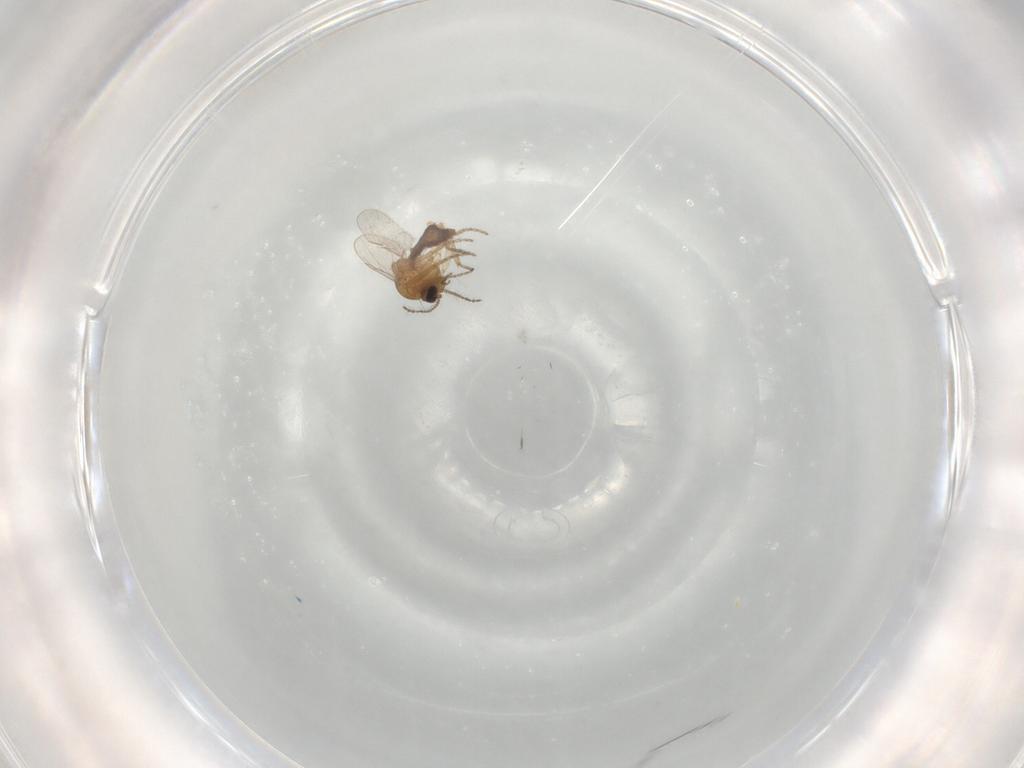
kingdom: Animalia
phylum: Arthropoda
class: Insecta
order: Diptera
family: Ceratopogonidae
